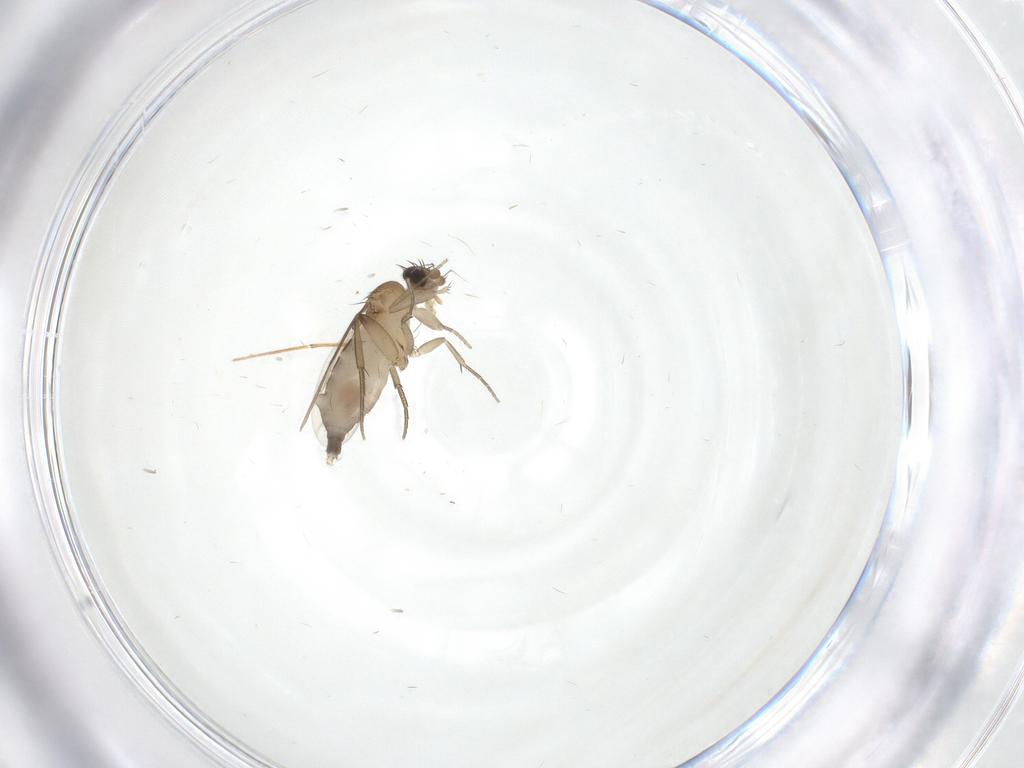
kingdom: Animalia
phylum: Arthropoda
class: Insecta
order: Diptera
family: Phoridae
